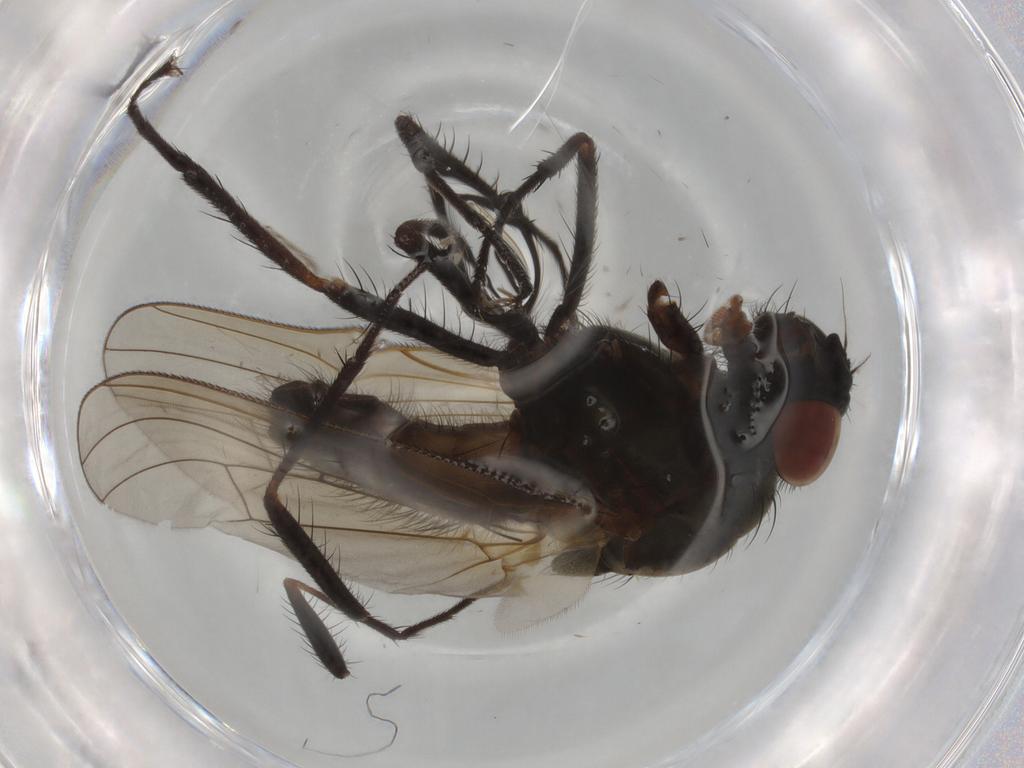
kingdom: Animalia
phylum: Arthropoda
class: Insecta
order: Diptera
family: Anthomyiidae
